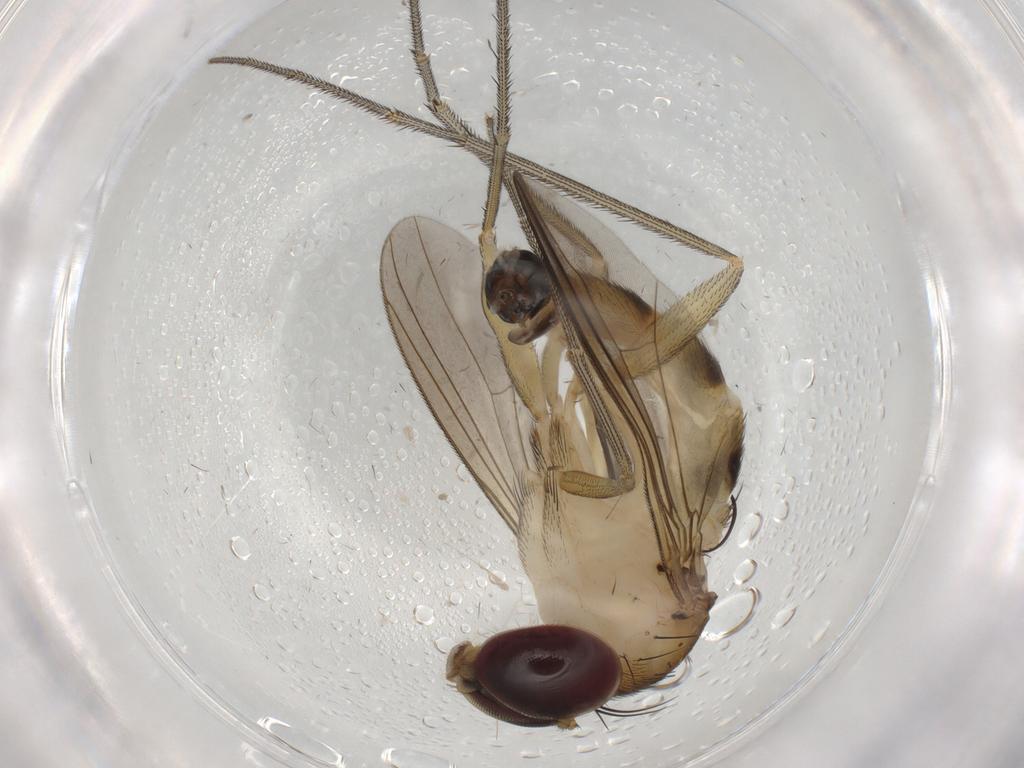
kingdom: Animalia
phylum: Arthropoda
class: Insecta
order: Diptera
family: Dolichopodidae
